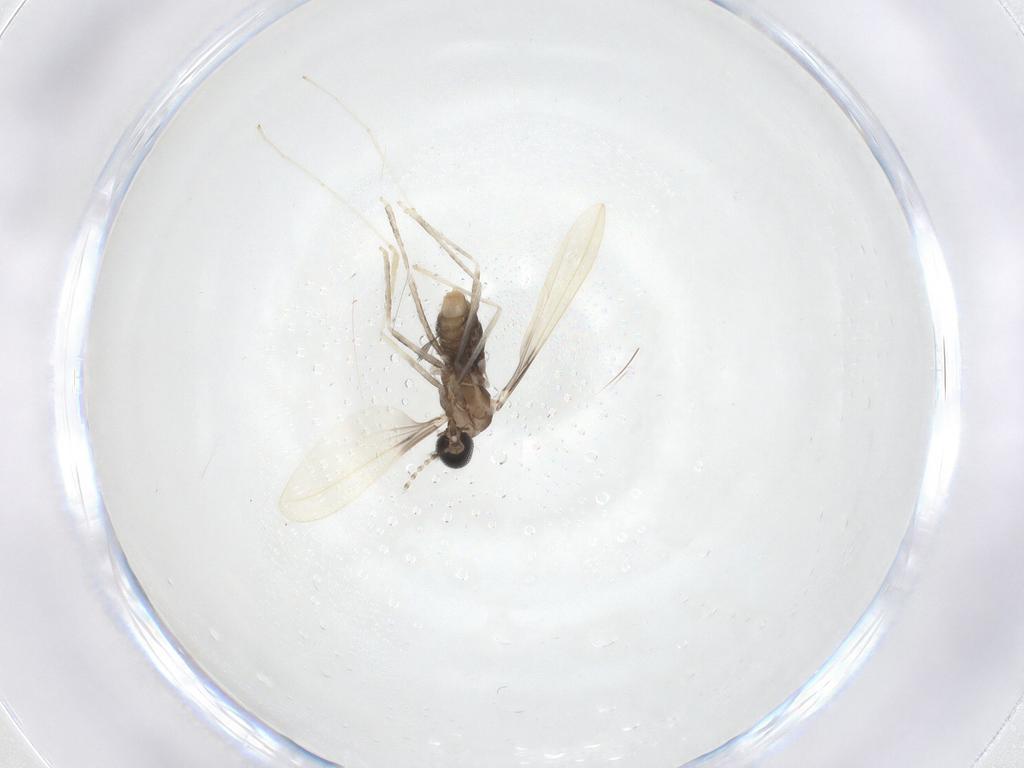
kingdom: Animalia
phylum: Arthropoda
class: Insecta
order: Diptera
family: Cecidomyiidae
